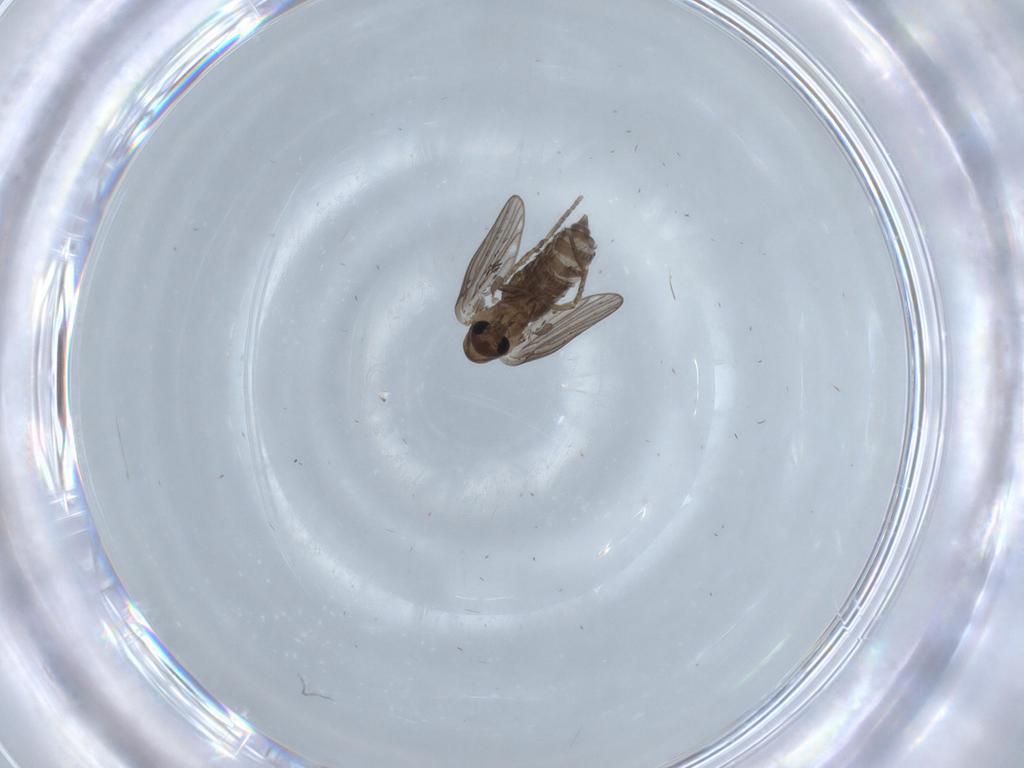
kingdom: Animalia
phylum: Arthropoda
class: Insecta
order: Diptera
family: Psychodidae
